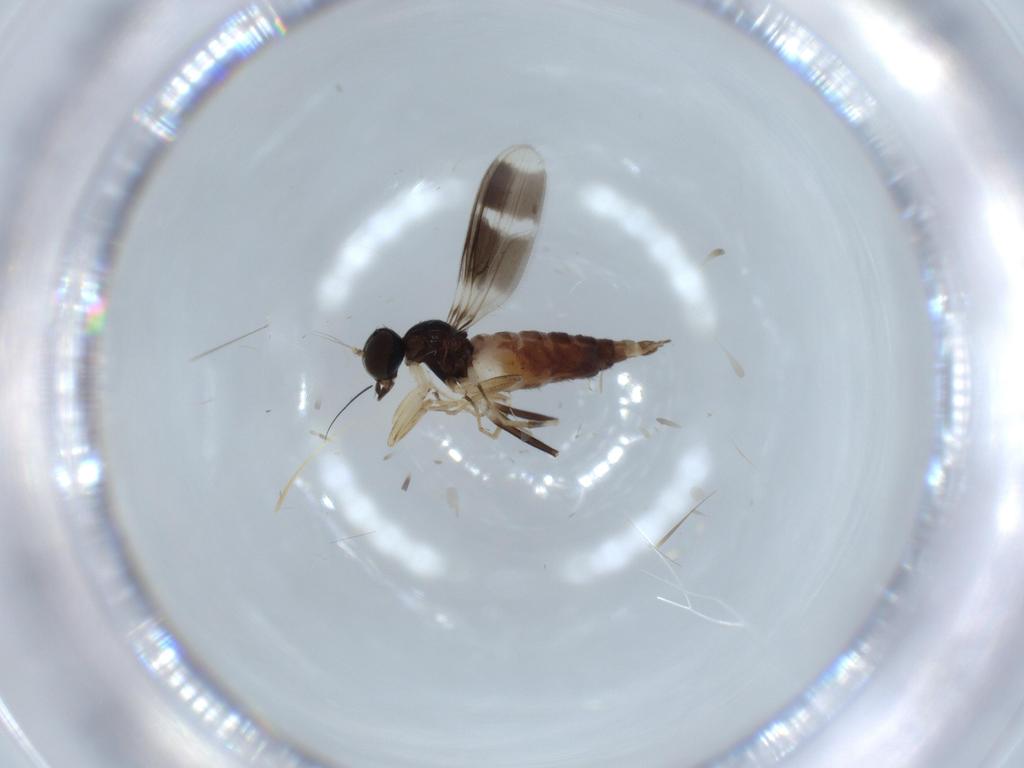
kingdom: Animalia
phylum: Arthropoda
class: Insecta
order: Diptera
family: Hybotidae
